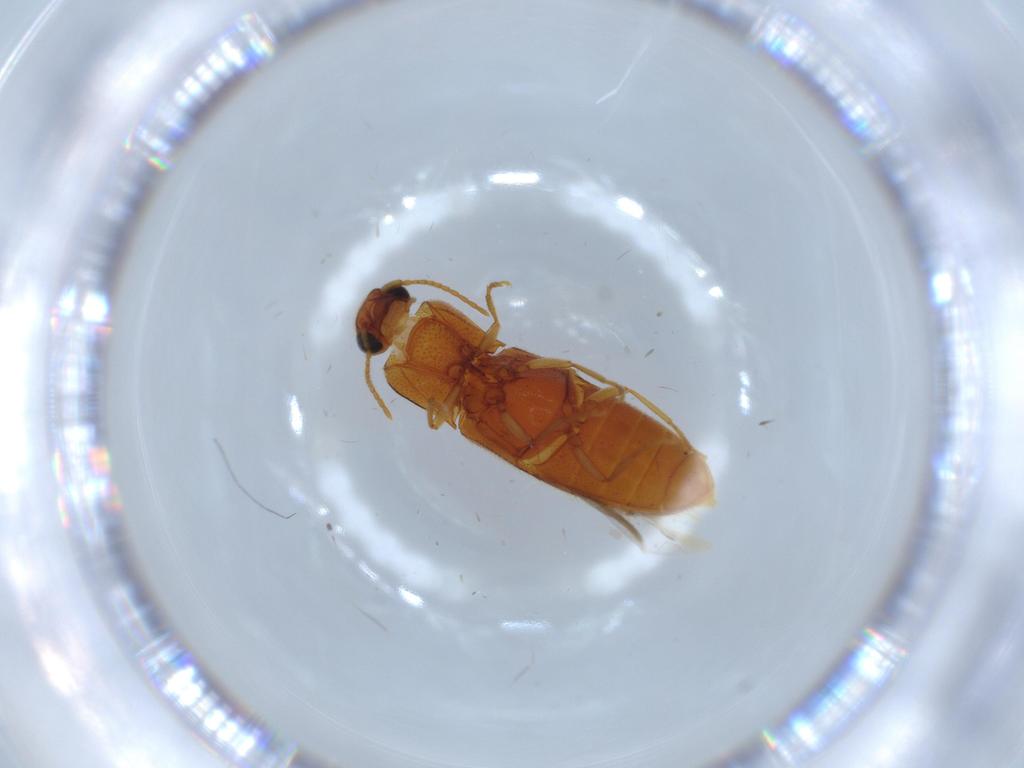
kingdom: Animalia
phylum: Arthropoda
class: Insecta
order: Coleoptera
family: Elateridae
